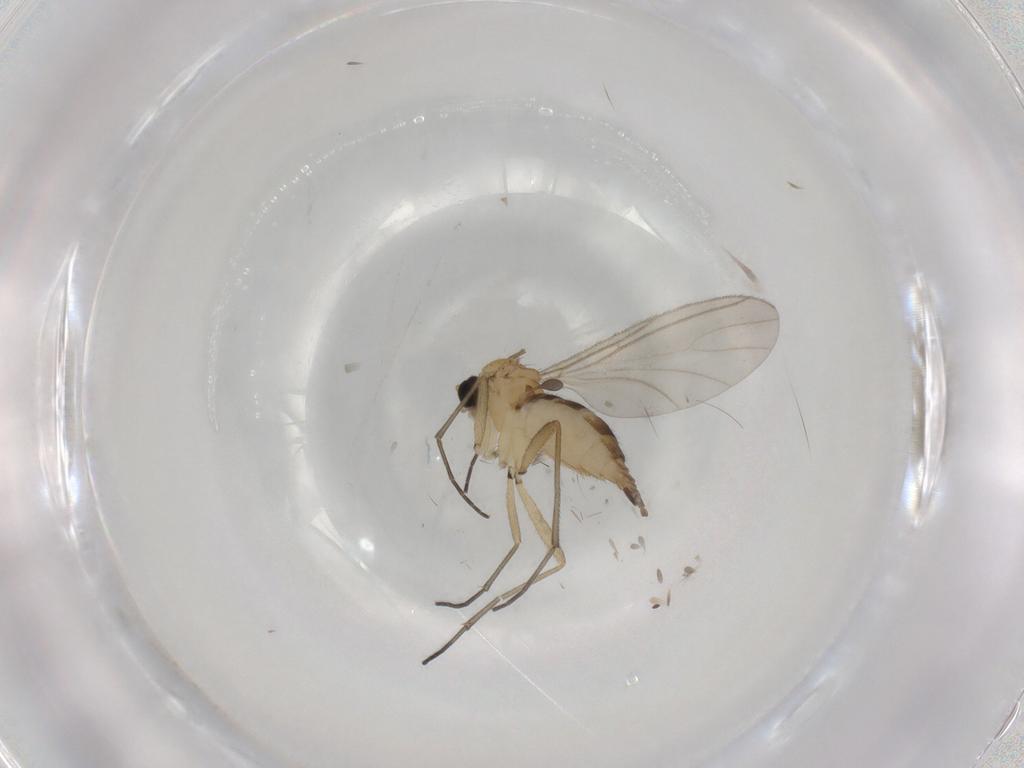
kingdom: Animalia
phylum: Arthropoda
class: Insecta
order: Diptera
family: Sciaridae
